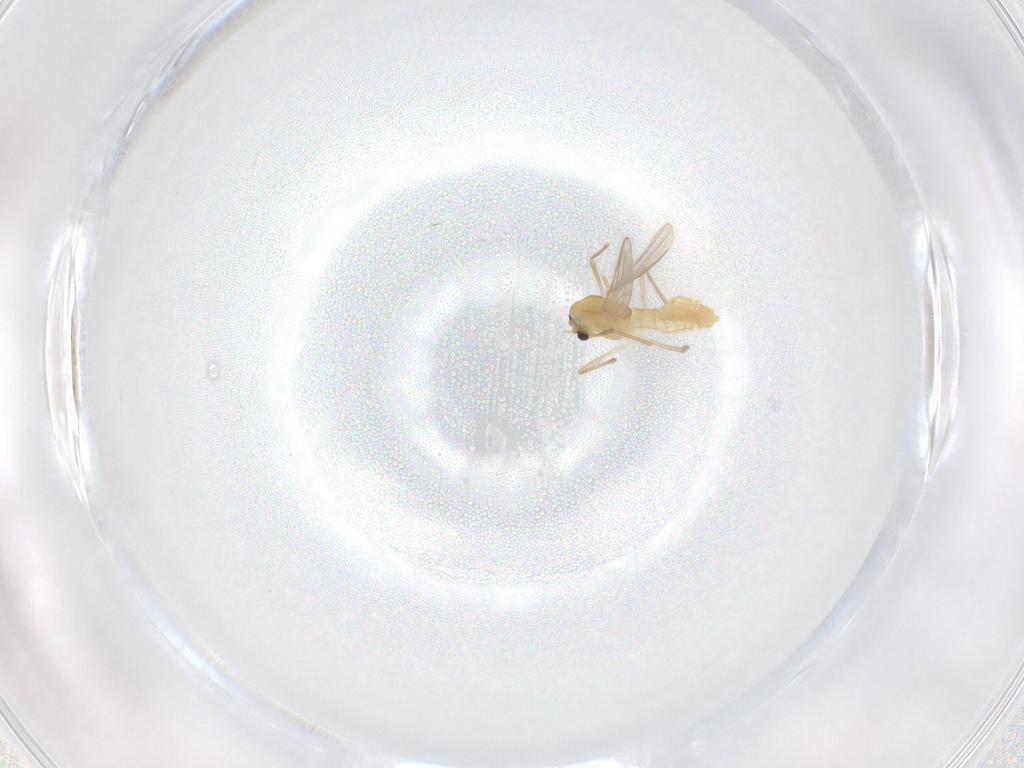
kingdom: Animalia
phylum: Arthropoda
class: Insecta
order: Diptera
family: Chironomidae
